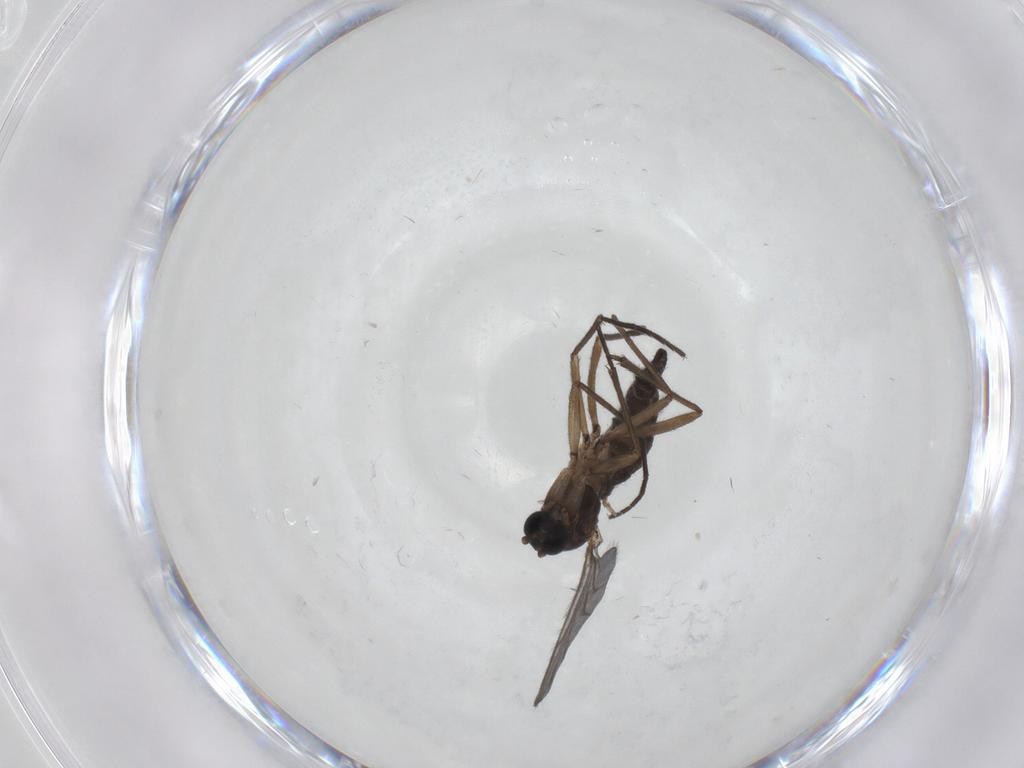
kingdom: Animalia
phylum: Arthropoda
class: Insecta
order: Diptera
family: Sciaridae
